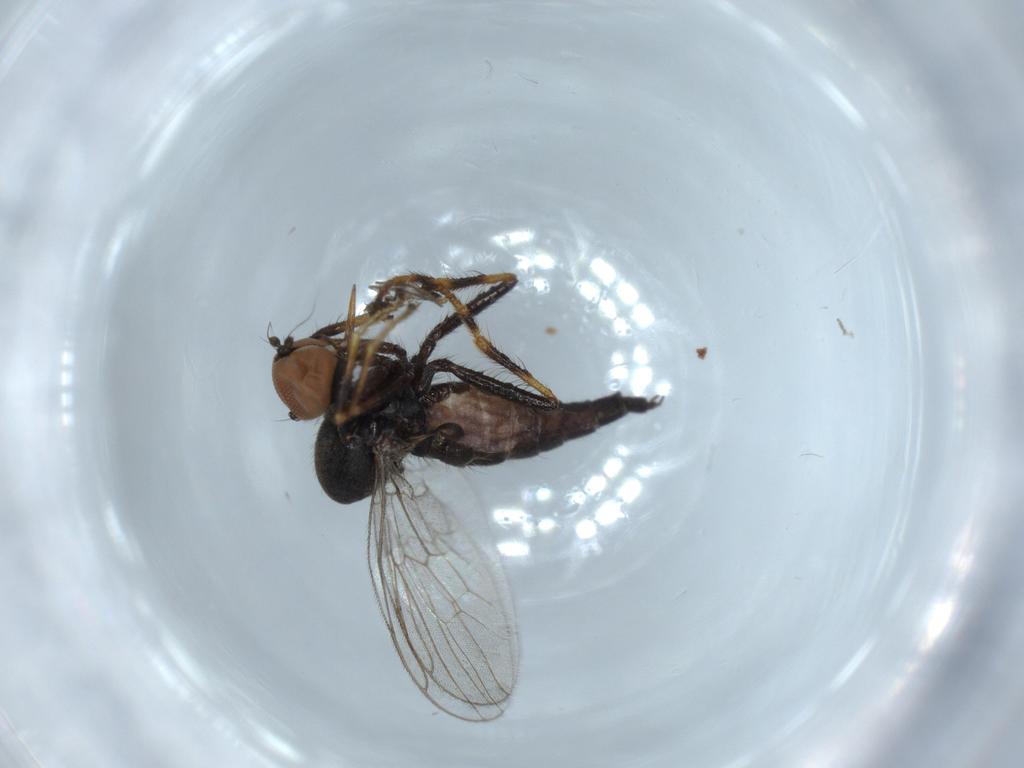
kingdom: Animalia
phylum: Arthropoda
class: Insecta
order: Diptera
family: Hybotidae
